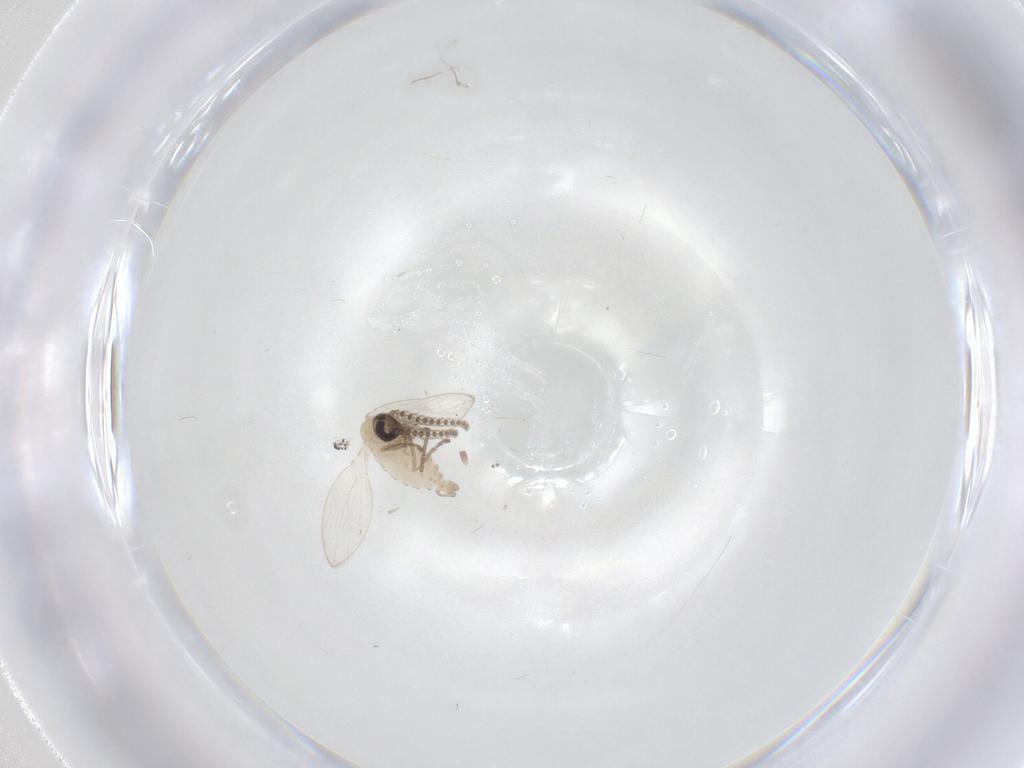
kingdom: Animalia
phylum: Arthropoda
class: Insecta
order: Diptera
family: Psychodidae
